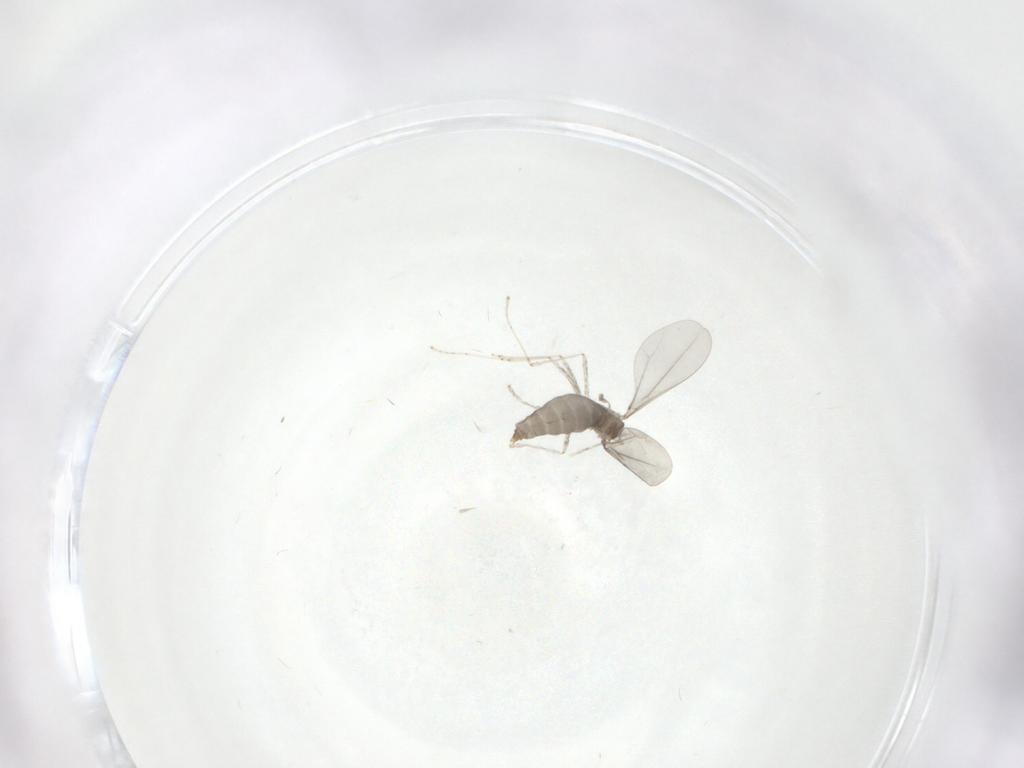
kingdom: Animalia
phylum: Arthropoda
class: Insecta
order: Diptera
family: Cecidomyiidae
